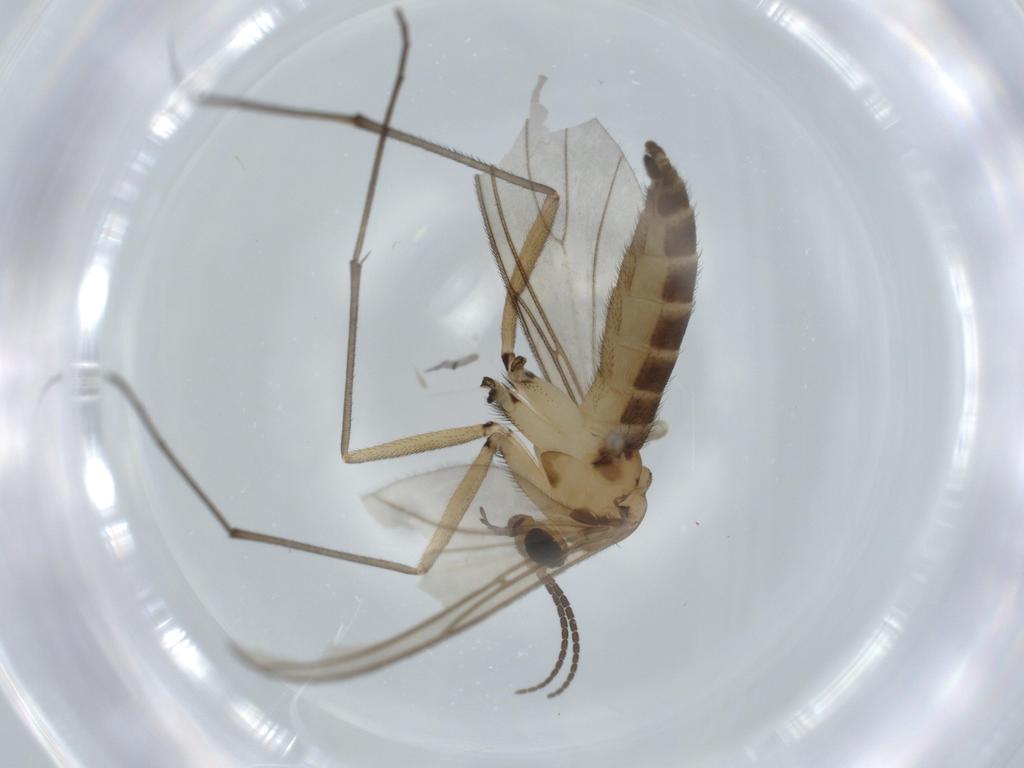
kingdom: Animalia
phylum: Arthropoda
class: Insecta
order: Diptera
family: Sciaridae
